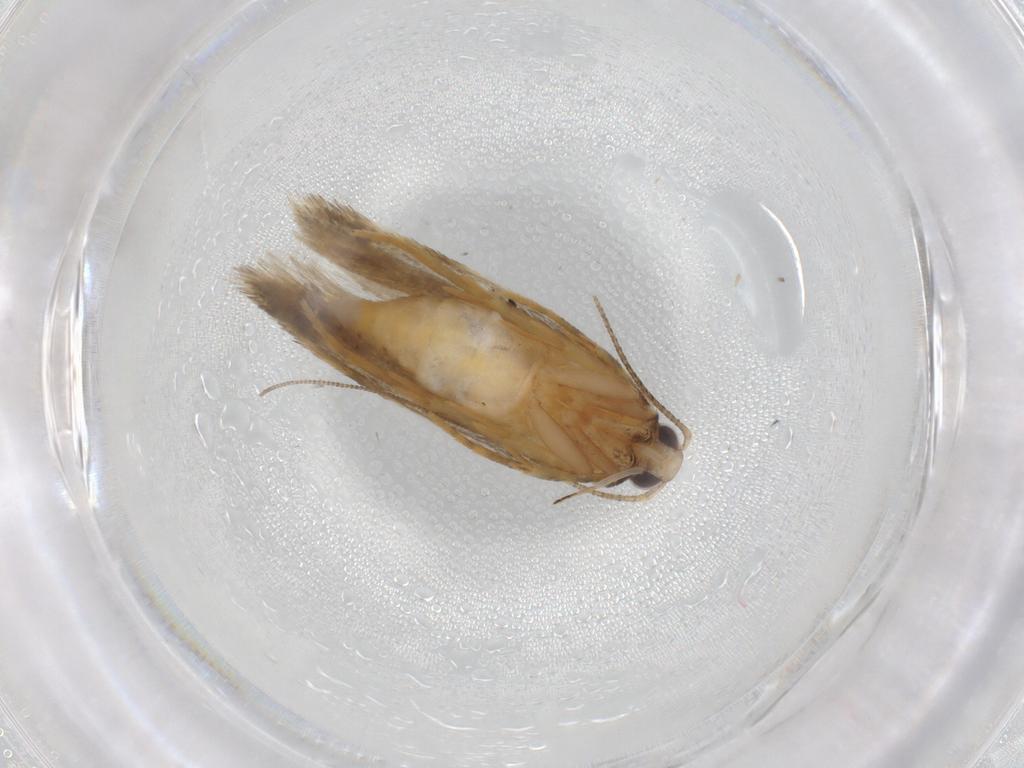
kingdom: Animalia
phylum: Arthropoda
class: Insecta
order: Lepidoptera
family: Autostichidae
